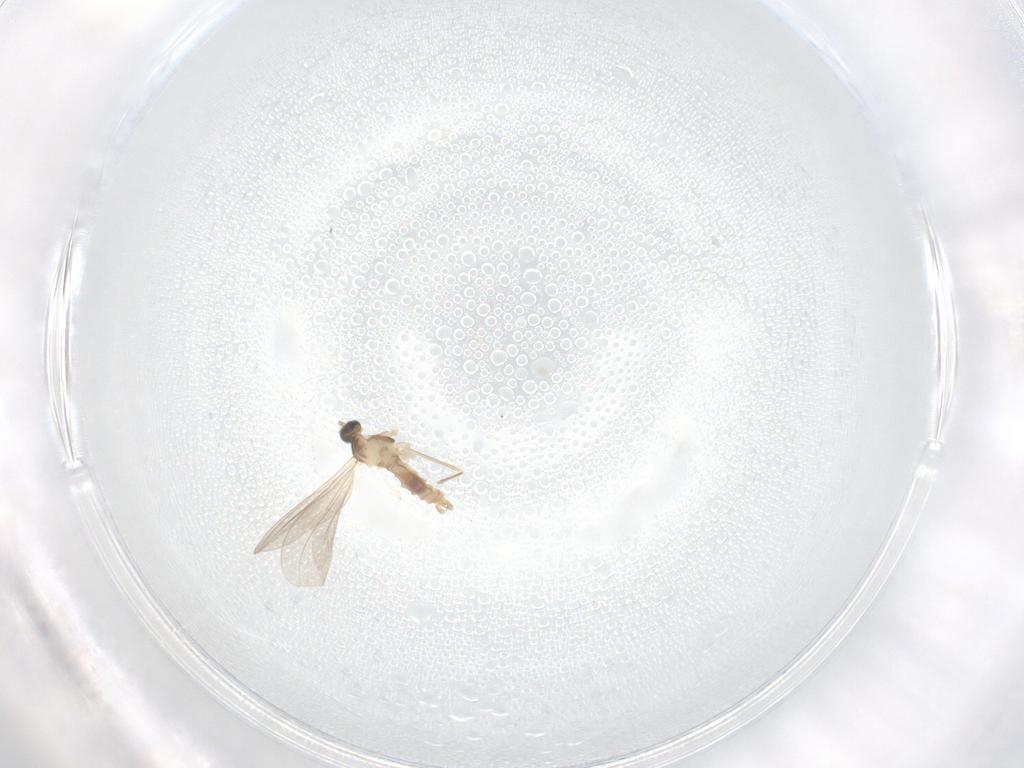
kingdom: Animalia
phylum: Arthropoda
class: Insecta
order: Diptera
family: Cecidomyiidae
